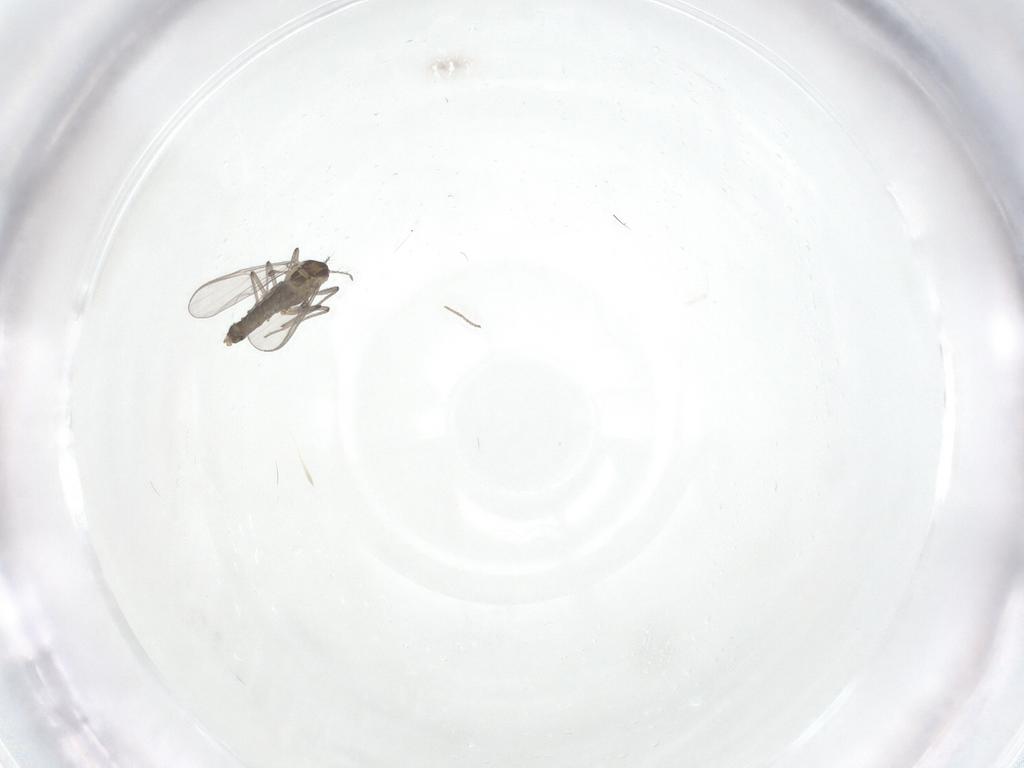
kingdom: Animalia
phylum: Arthropoda
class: Insecta
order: Diptera
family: Chironomidae
